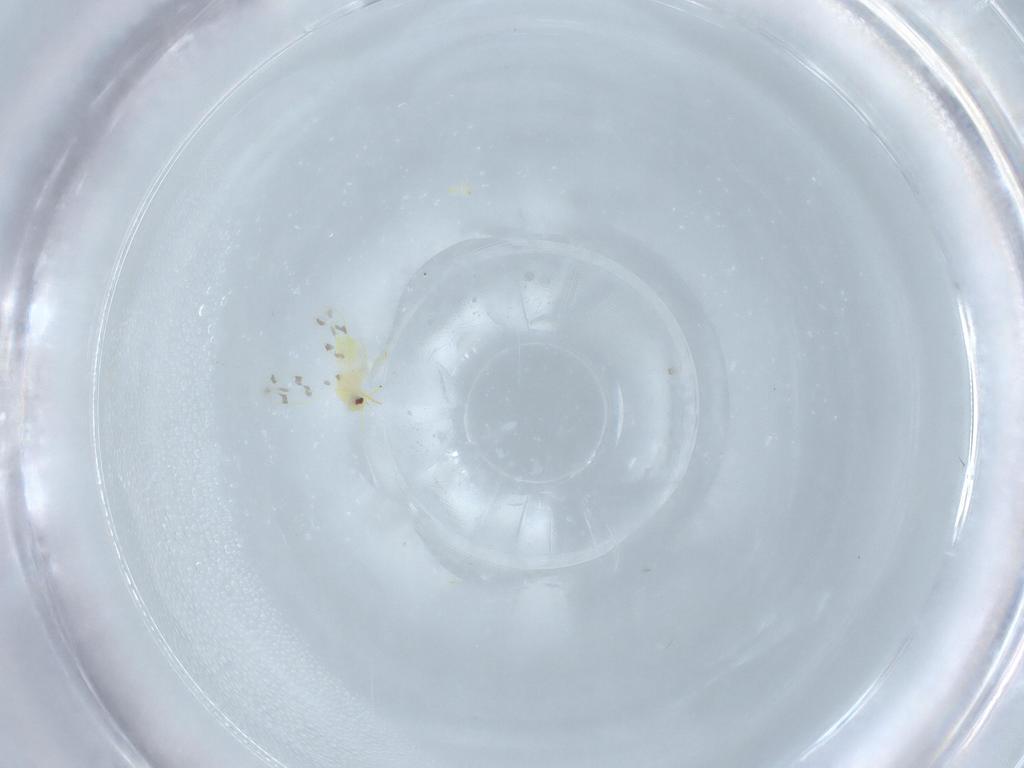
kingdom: Animalia
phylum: Arthropoda
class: Insecta
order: Hemiptera
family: Aleyrodidae
